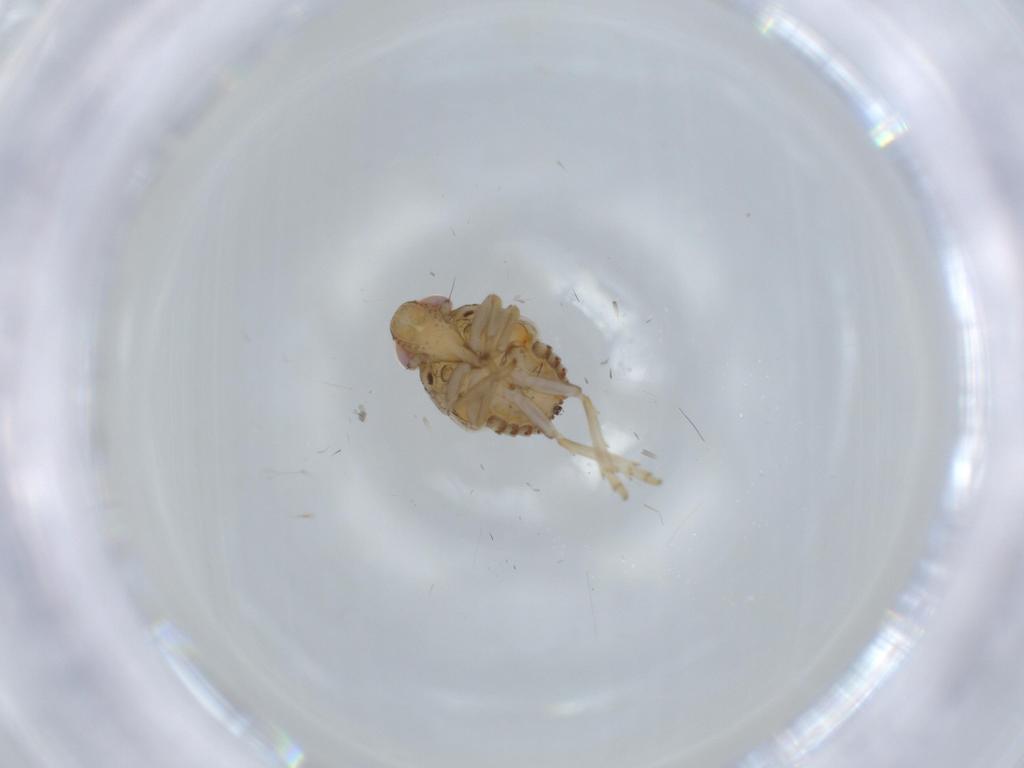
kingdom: Animalia
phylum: Arthropoda
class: Insecta
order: Hemiptera
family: Issidae
